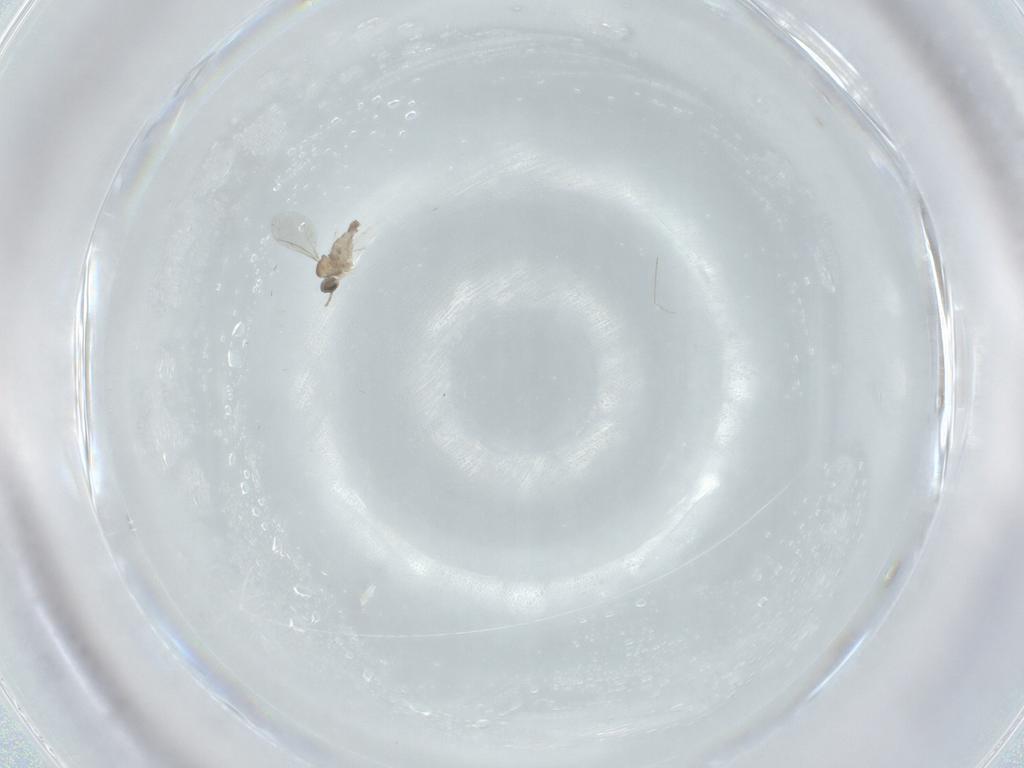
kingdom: Animalia
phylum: Arthropoda
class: Insecta
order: Diptera
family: Cecidomyiidae
